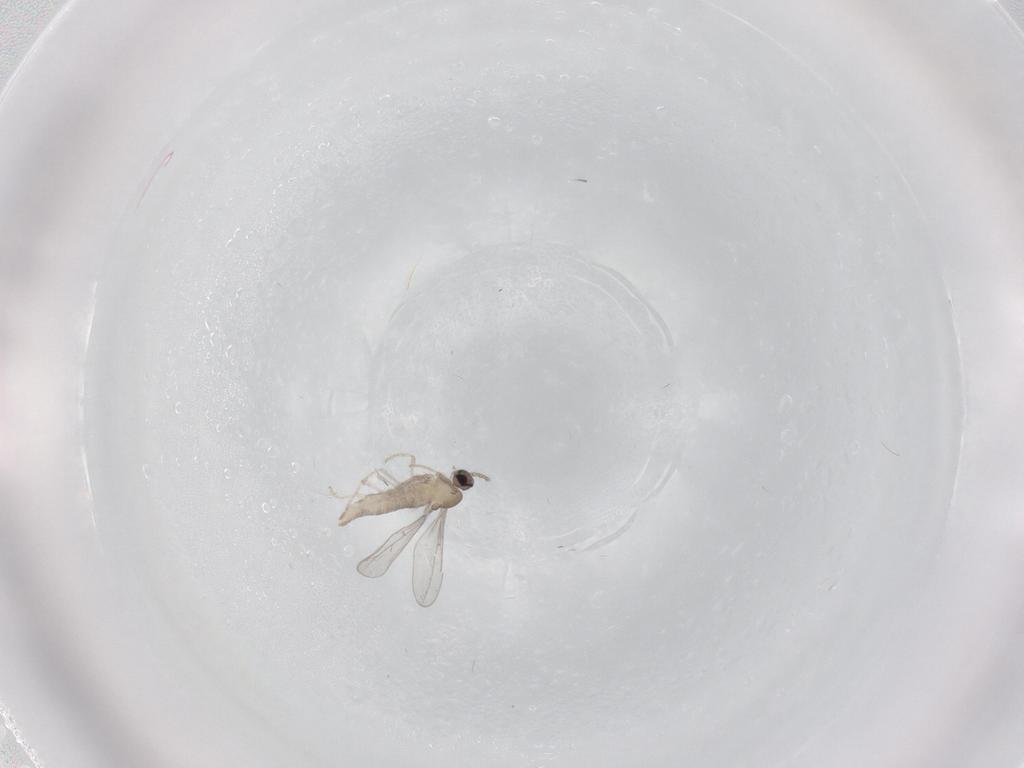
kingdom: Animalia
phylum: Arthropoda
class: Insecta
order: Diptera
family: Cecidomyiidae
